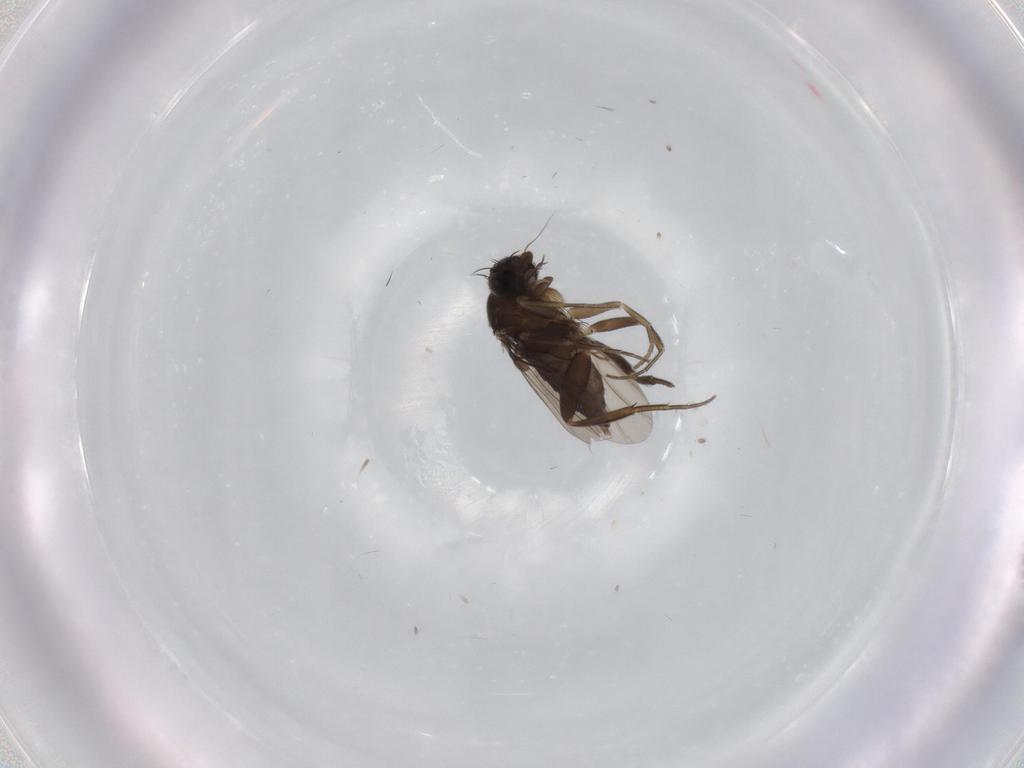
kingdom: Animalia
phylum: Arthropoda
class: Insecta
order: Diptera
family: Phoridae
